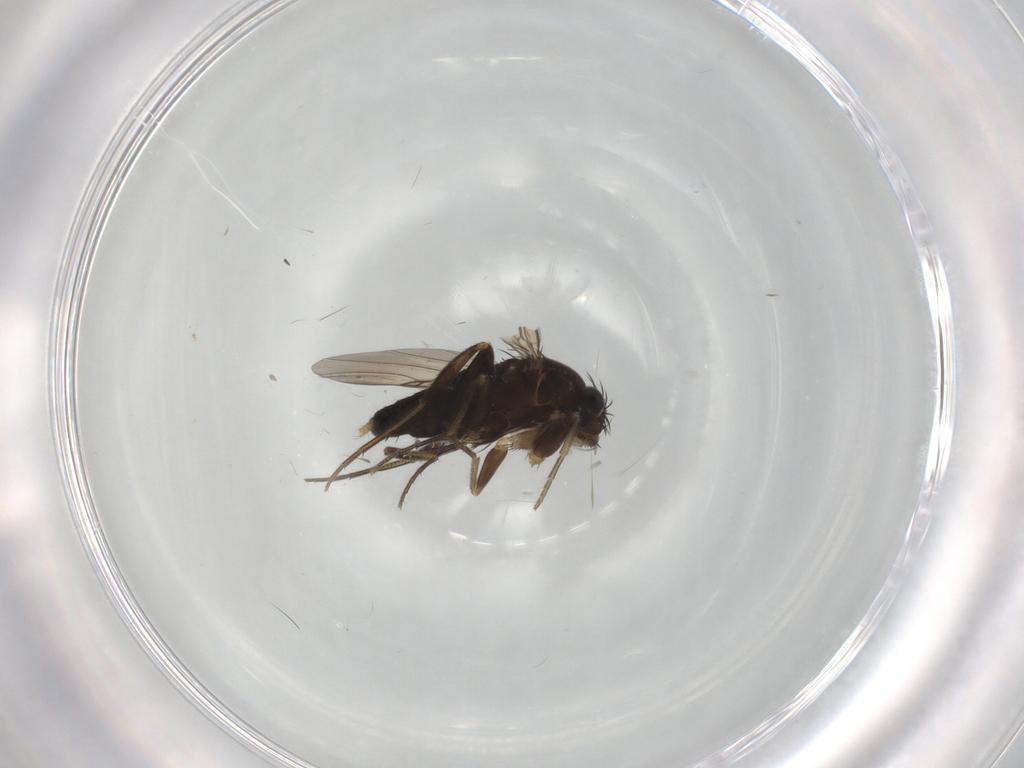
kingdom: Animalia
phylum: Arthropoda
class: Insecta
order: Diptera
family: Phoridae
